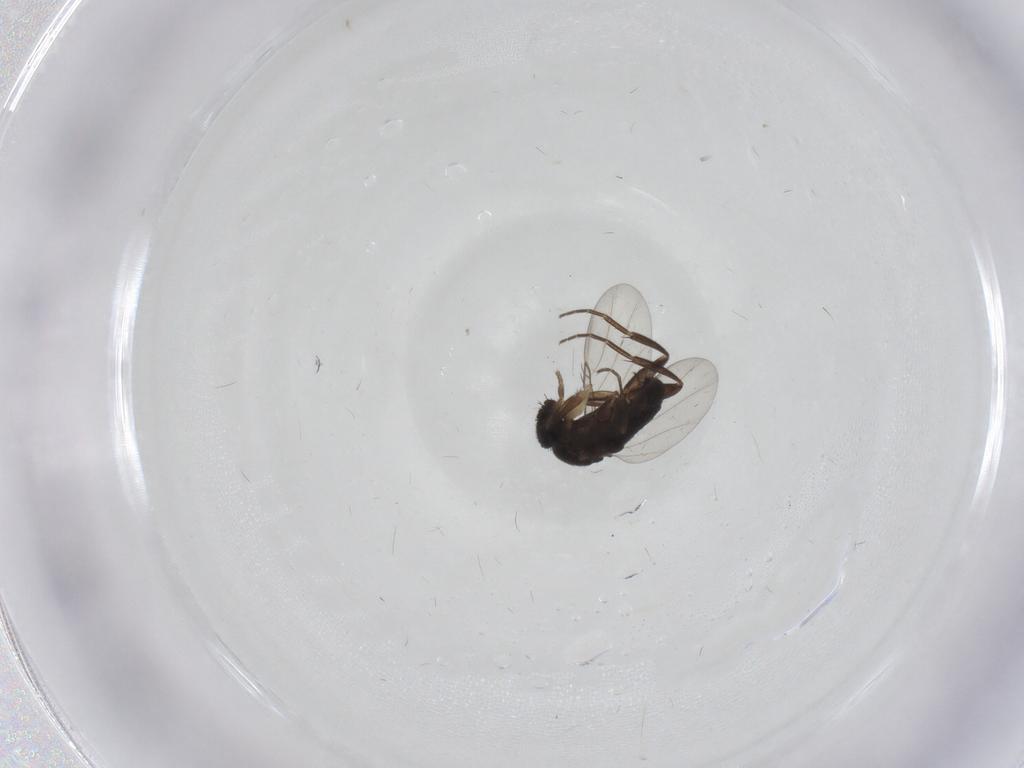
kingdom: Animalia
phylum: Arthropoda
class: Insecta
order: Diptera
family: Phoridae
